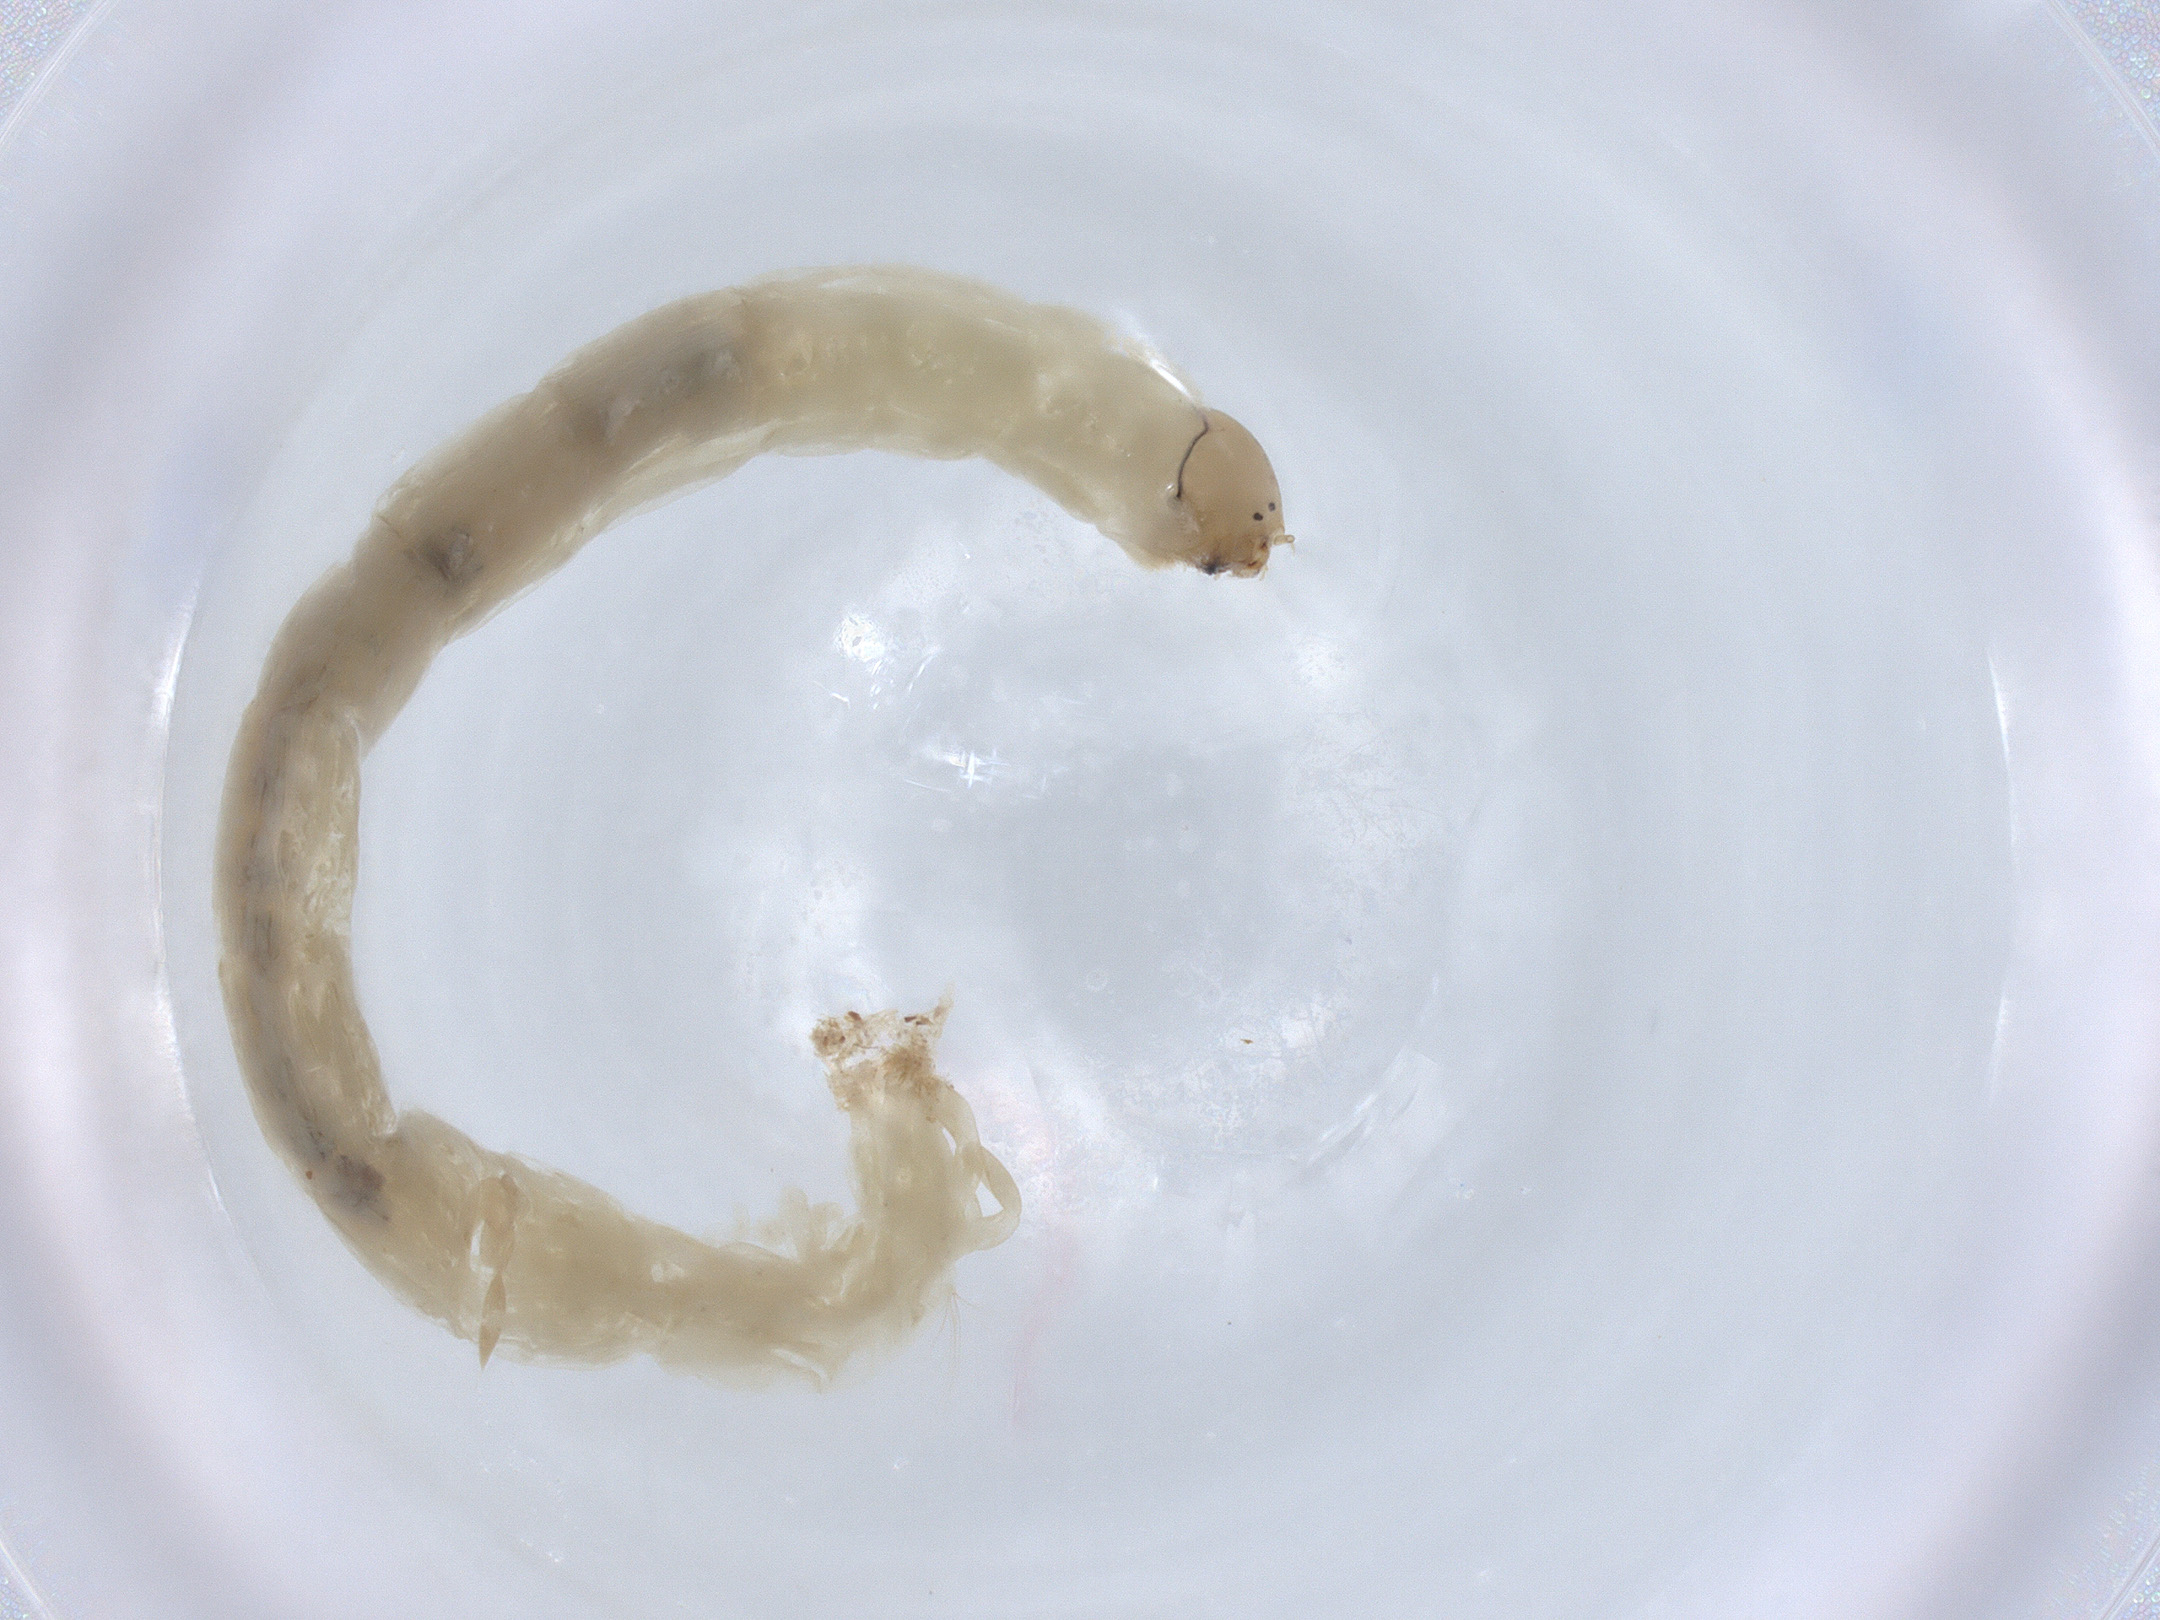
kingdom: Animalia
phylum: Arthropoda
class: Insecta
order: Diptera
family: Chironomidae
